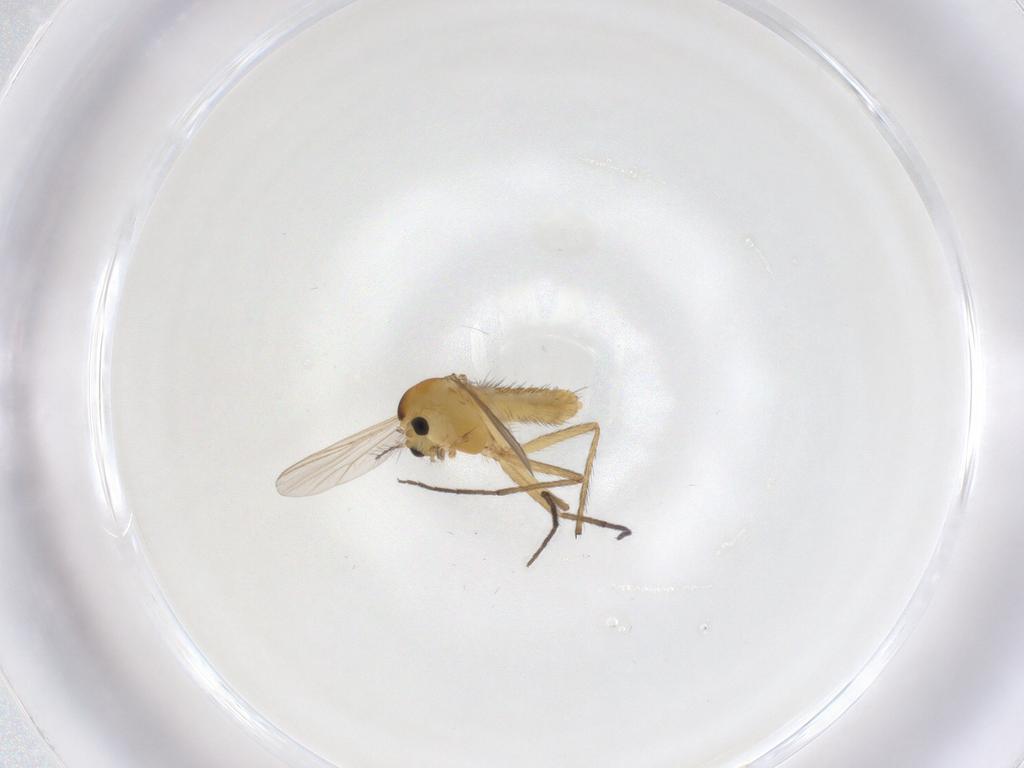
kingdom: Animalia
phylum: Arthropoda
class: Insecta
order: Diptera
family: Chironomidae
